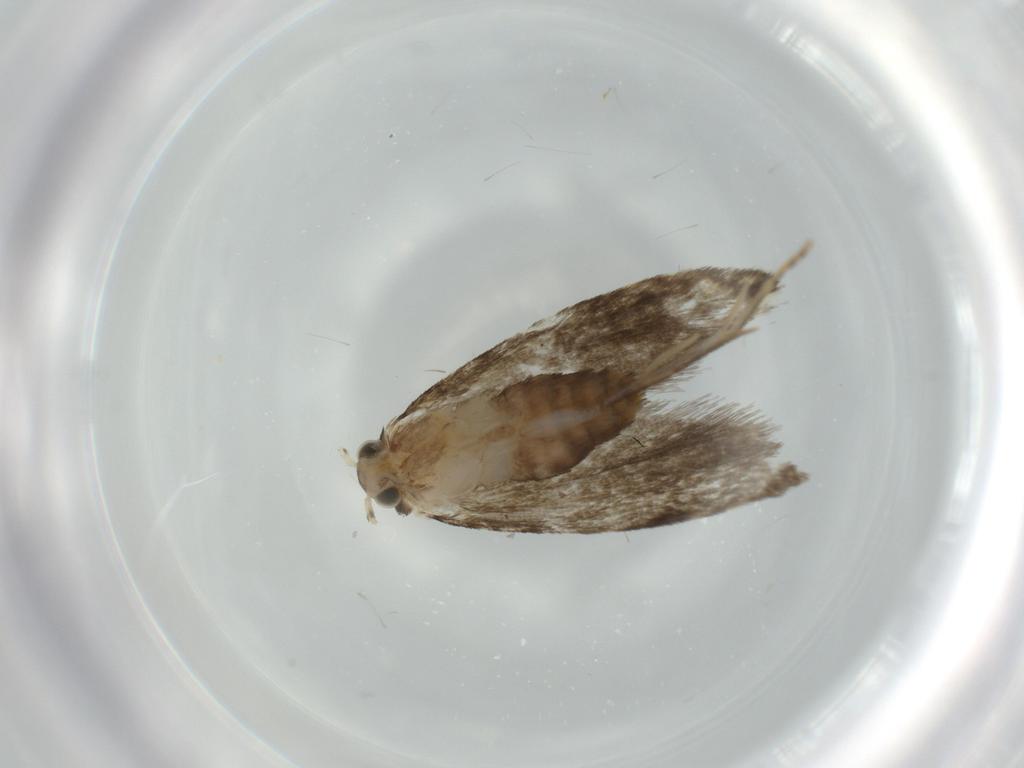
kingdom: Animalia
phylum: Arthropoda
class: Insecta
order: Lepidoptera
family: Tineidae
